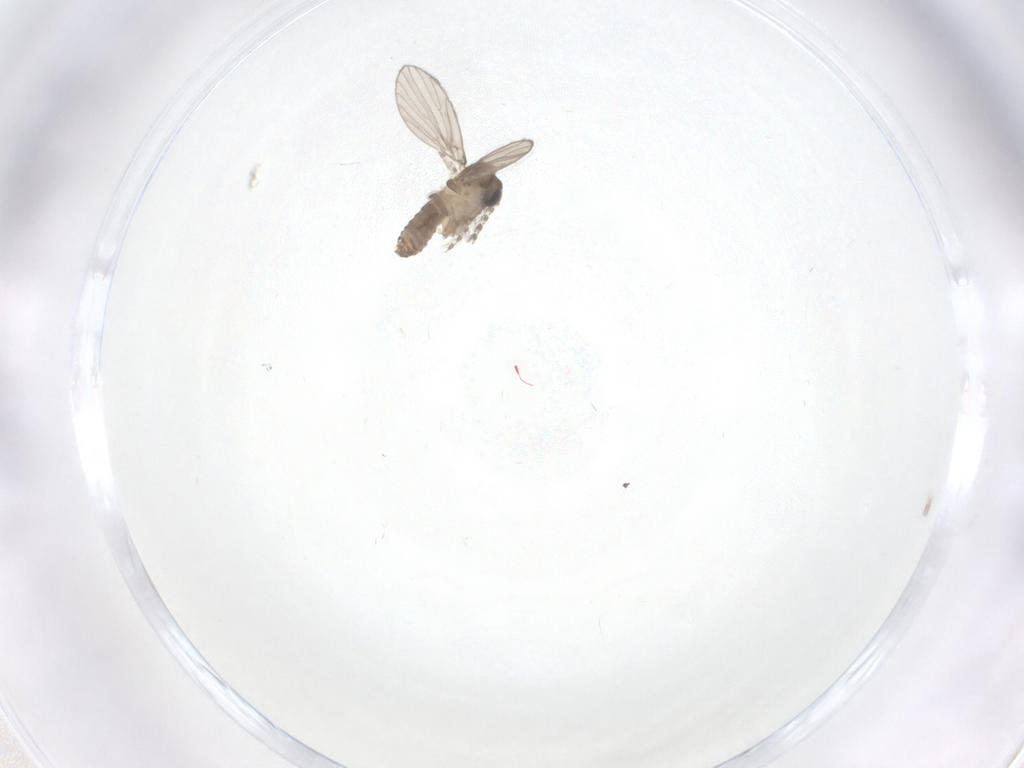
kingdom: Animalia
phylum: Arthropoda
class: Insecta
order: Diptera
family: Psychodidae
